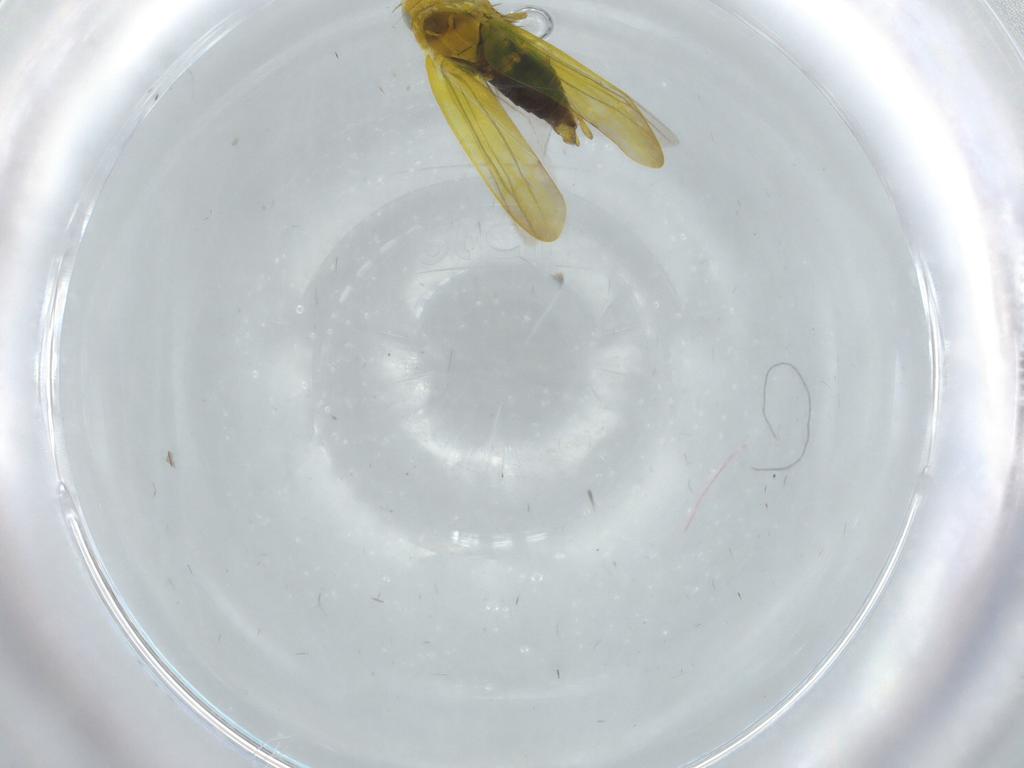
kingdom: Animalia
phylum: Arthropoda
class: Insecta
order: Hemiptera
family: Cicadellidae
